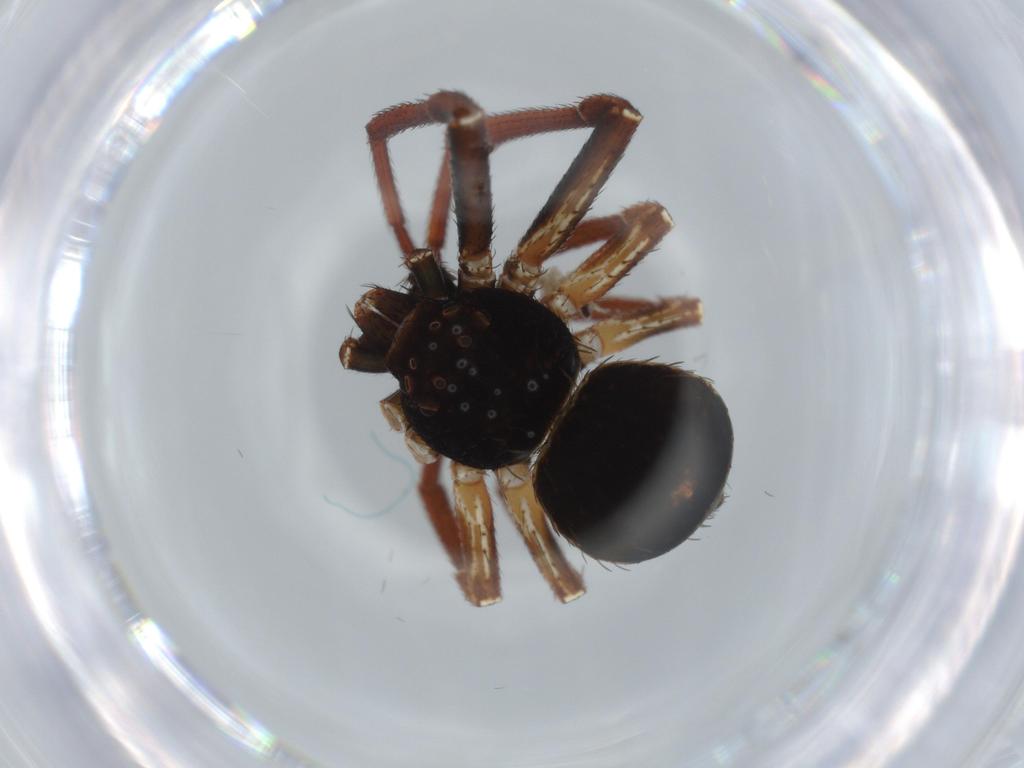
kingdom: Animalia
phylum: Arthropoda
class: Arachnida
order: Araneae
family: Thomisidae
